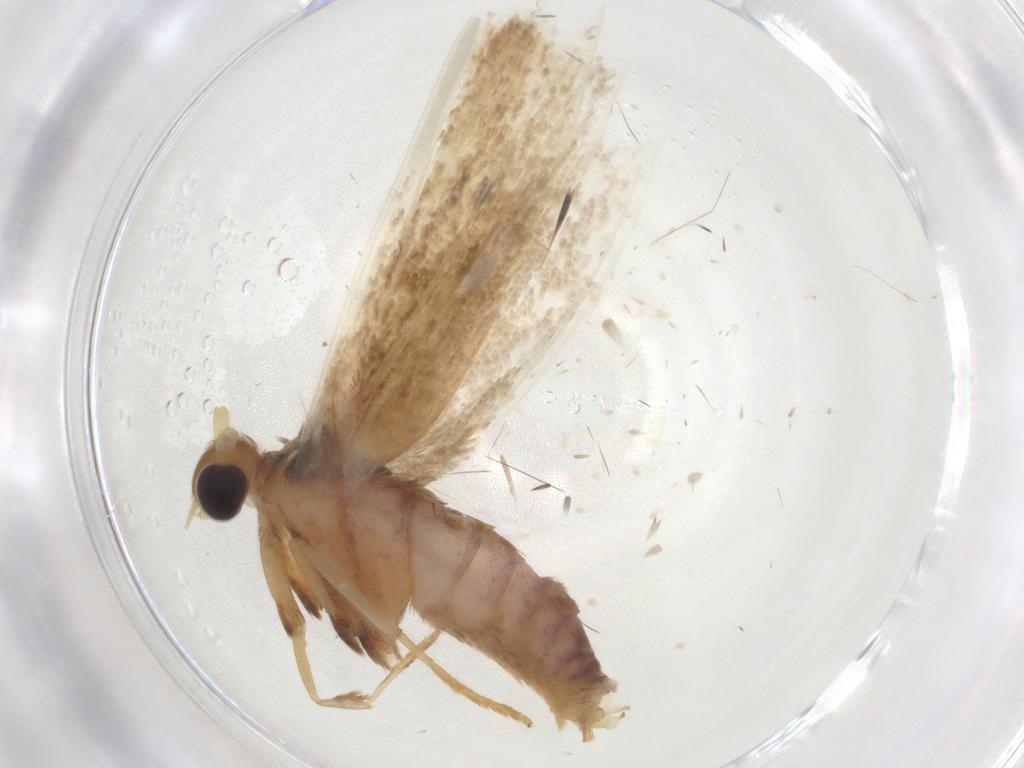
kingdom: Animalia
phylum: Arthropoda
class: Insecta
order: Lepidoptera
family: Blastobasidae
